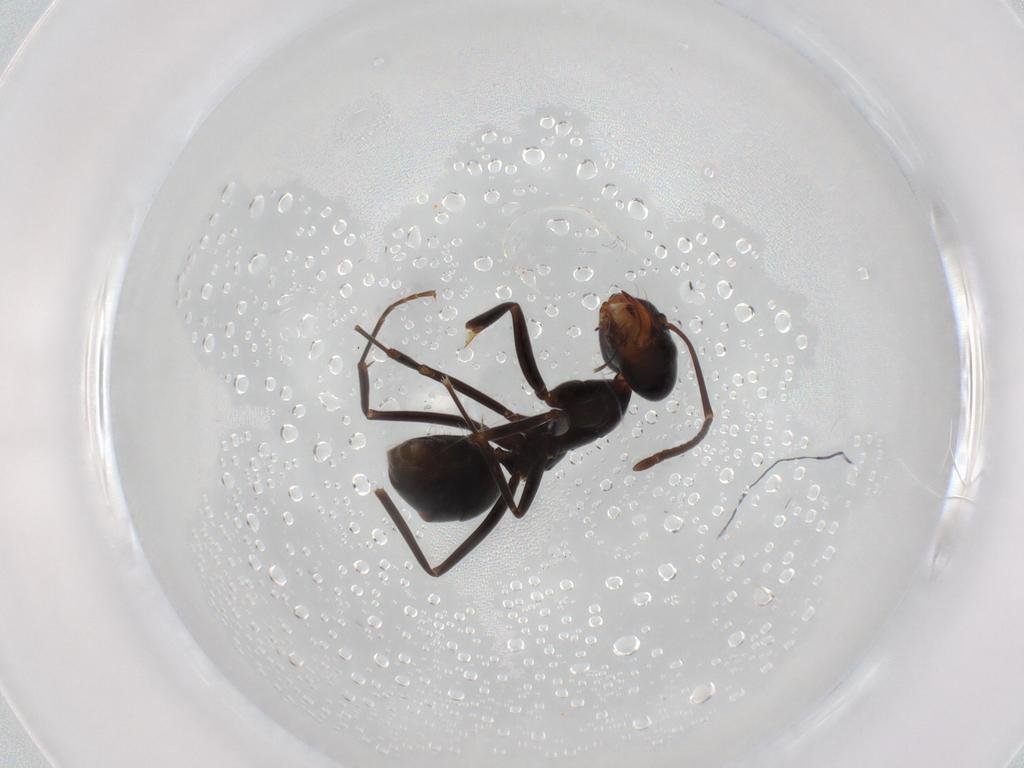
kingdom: Animalia
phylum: Arthropoda
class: Insecta
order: Hymenoptera
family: Formicidae
